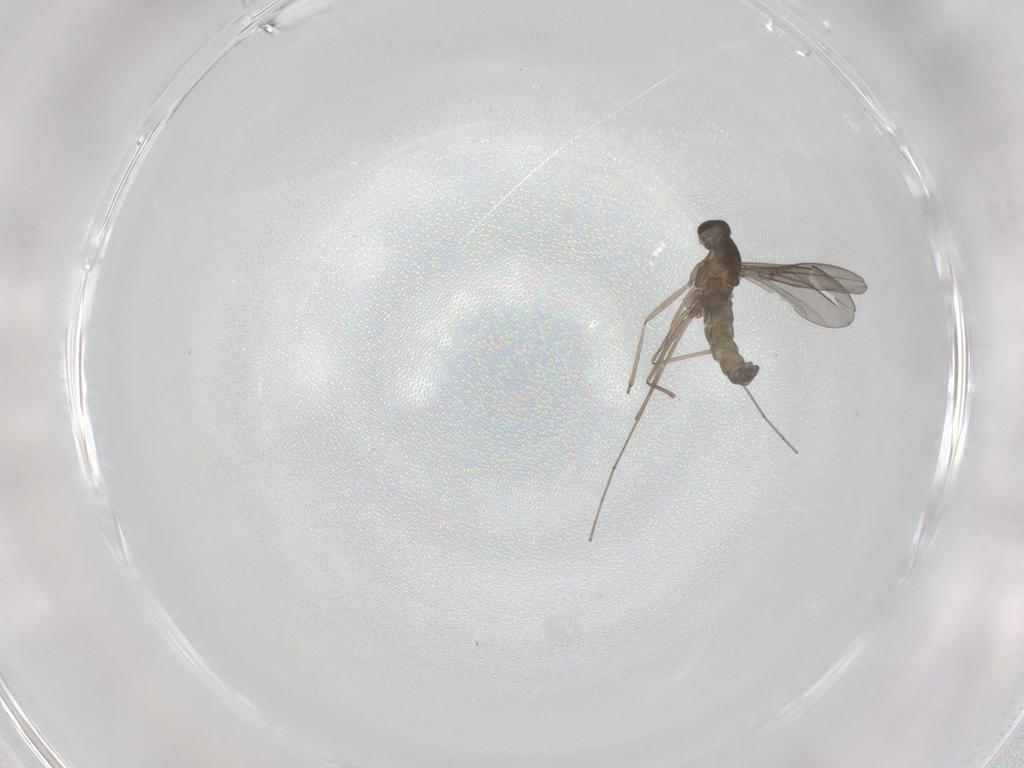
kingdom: Animalia
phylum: Arthropoda
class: Insecta
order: Diptera
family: Cecidomyiidae
